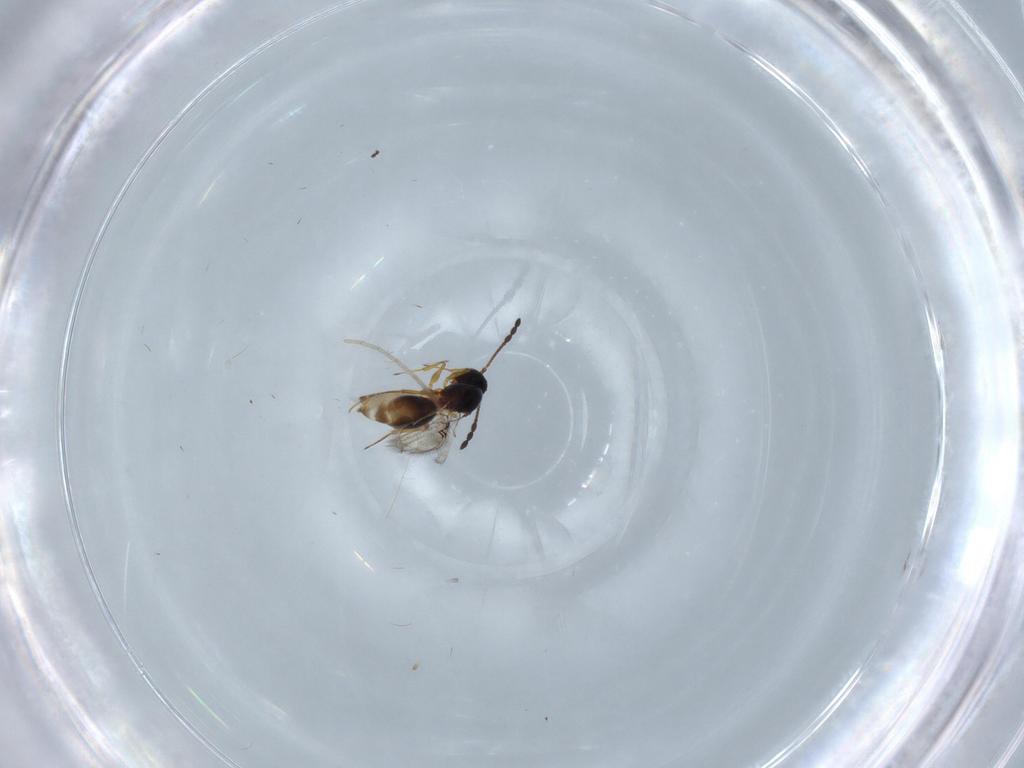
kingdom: Animalia
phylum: Arthropoda
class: Insecta
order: Hymenoptera
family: Figitidae
